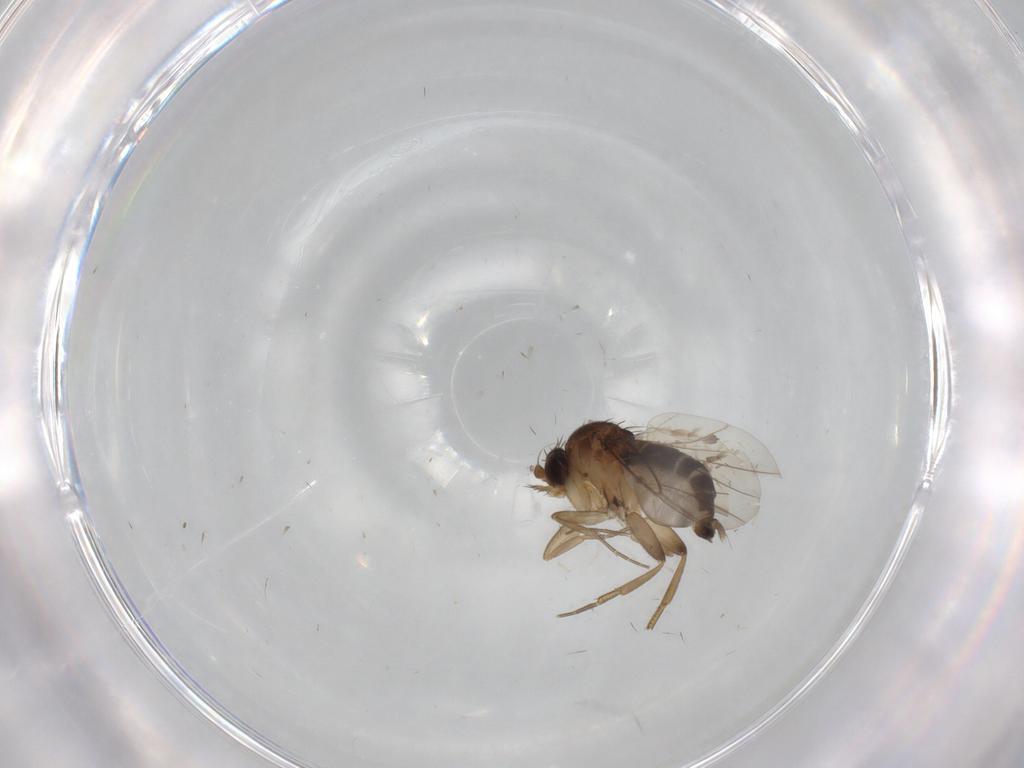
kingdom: Animalia
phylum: Arthropoda
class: Insecta
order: Diptera
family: Phoridae
